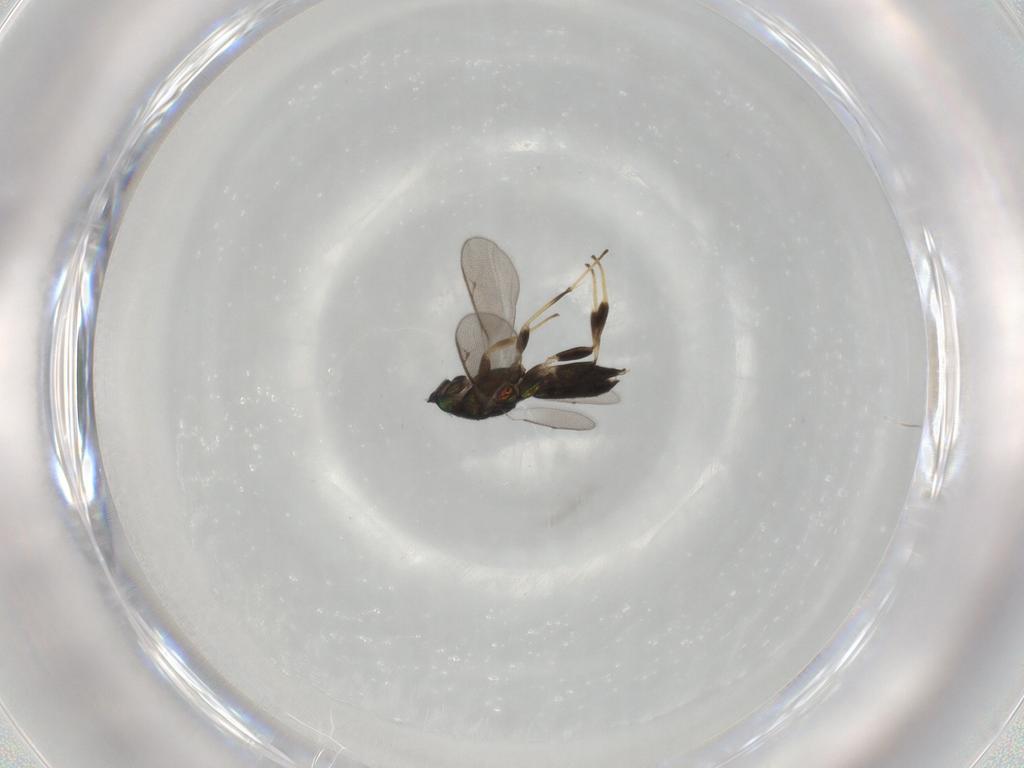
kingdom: Animalia
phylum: Arthropoda
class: Insecta
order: Hymenoptera
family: Eupelmidae
